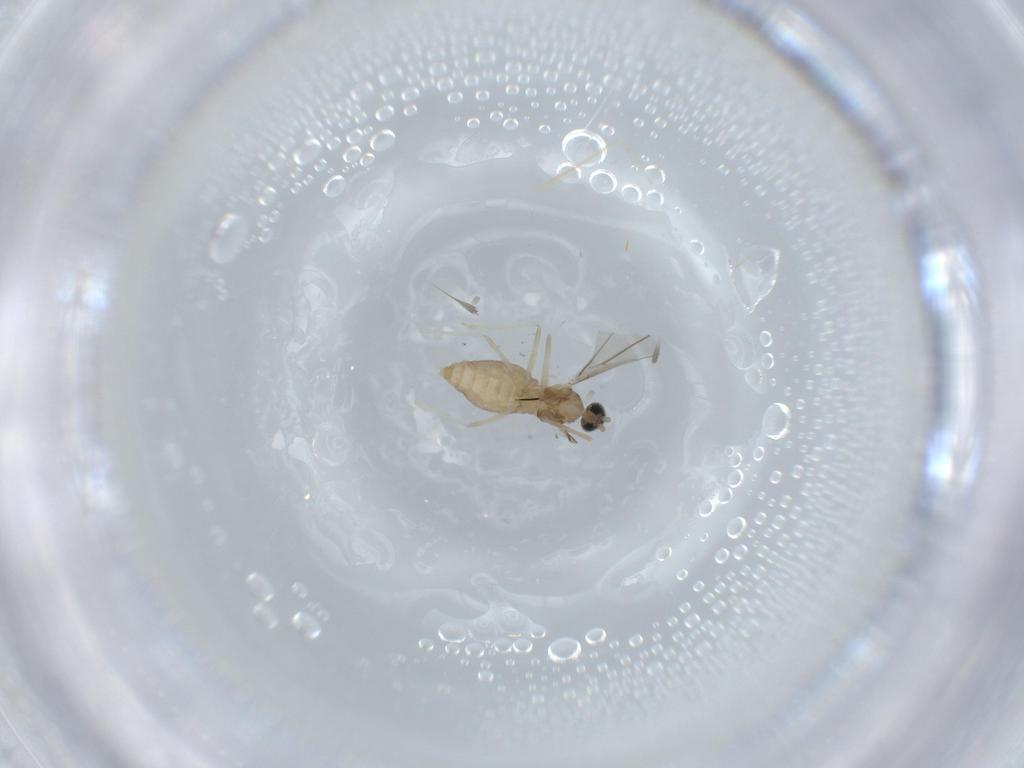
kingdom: Animalia
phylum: Arthropoda
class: Insecta
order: Diptera
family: Cecidomyiidae
